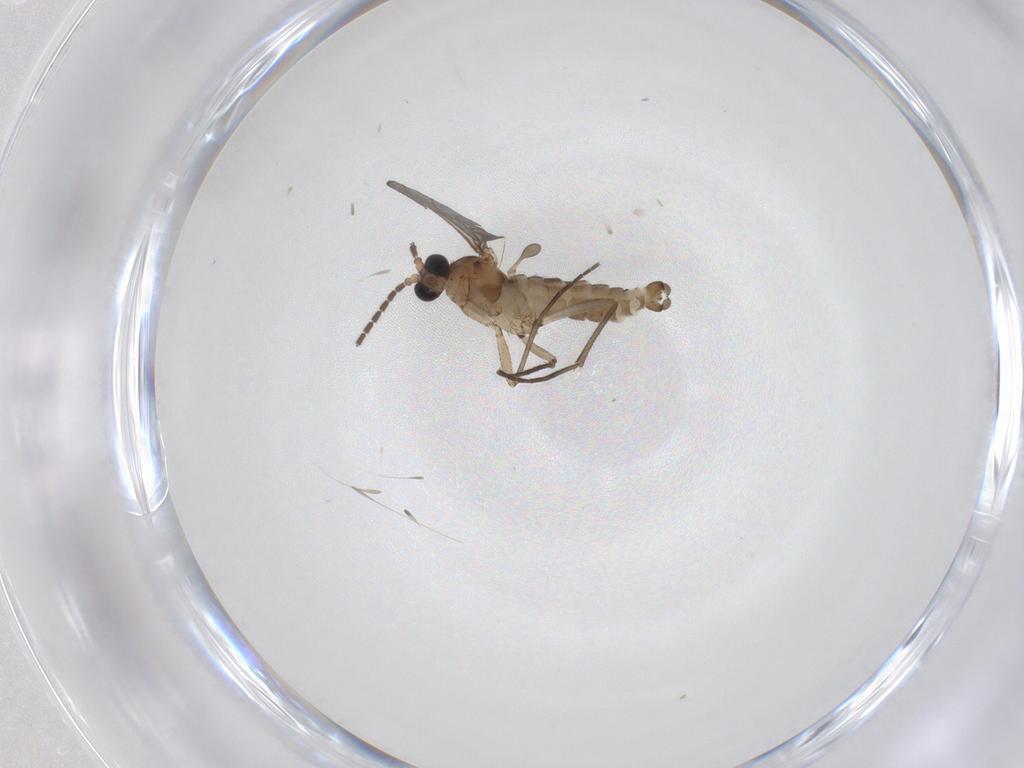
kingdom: Animalia
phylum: Arthropoda
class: Insecta
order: Diptera
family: Sciaridae
